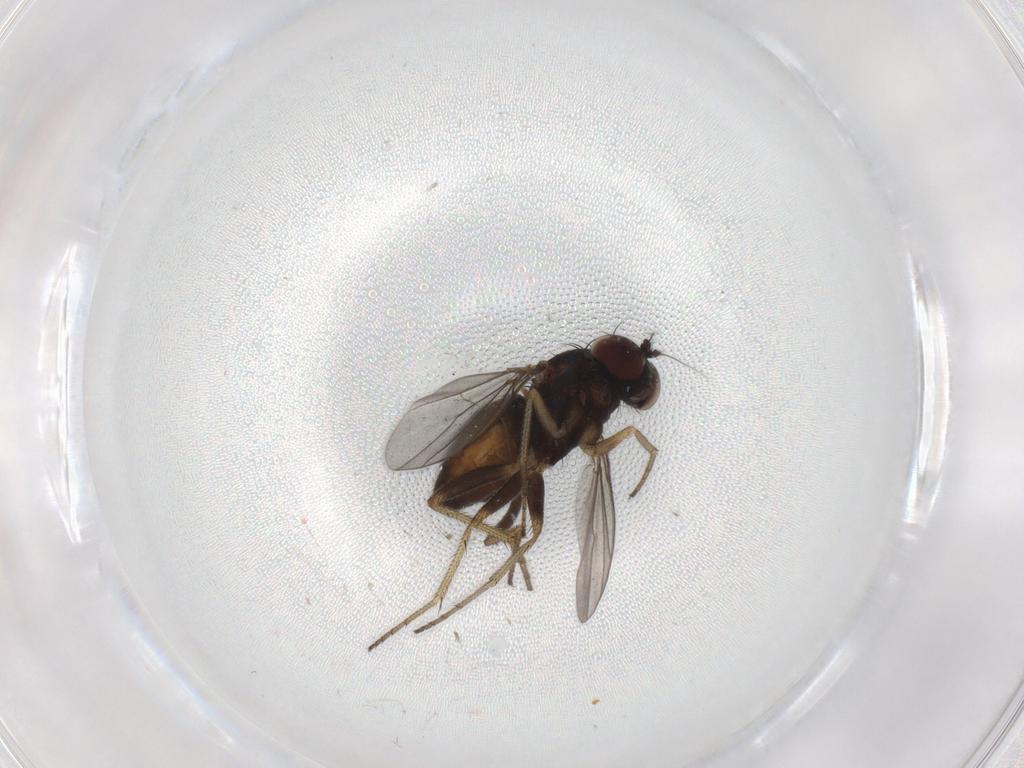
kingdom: Animalia
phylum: Arthropoda
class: Insecta
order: Diptera
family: Dolichopodidae
